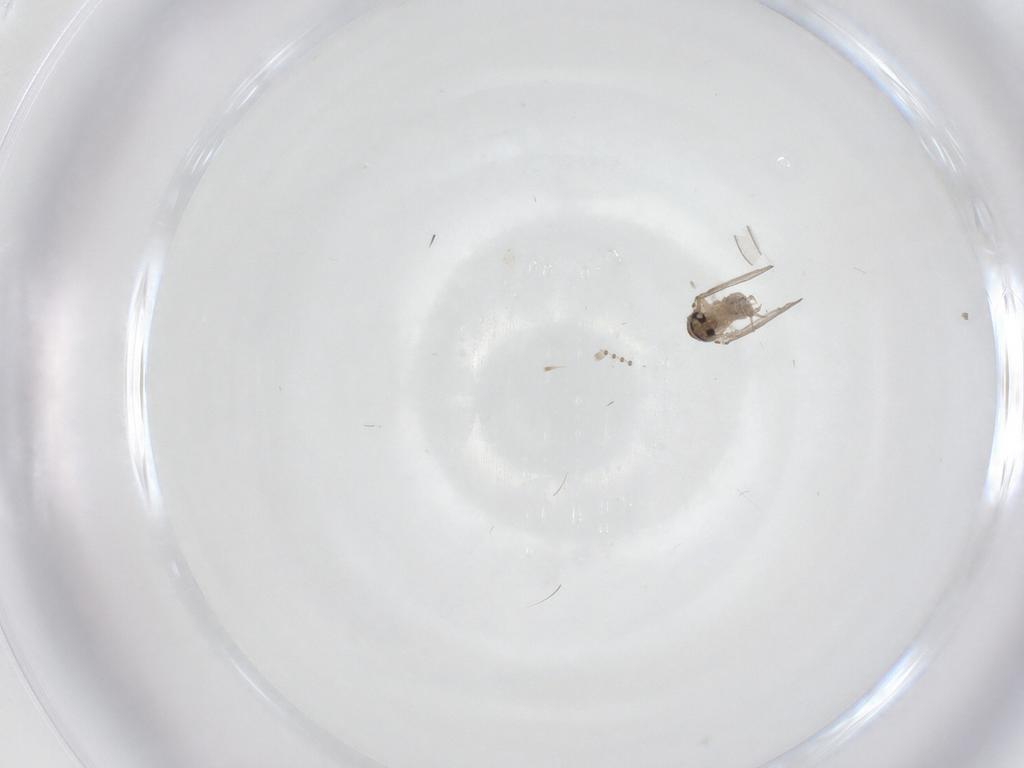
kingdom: Animalia
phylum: Arthropoda
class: Insecta
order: Diptera
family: Psychodidae
